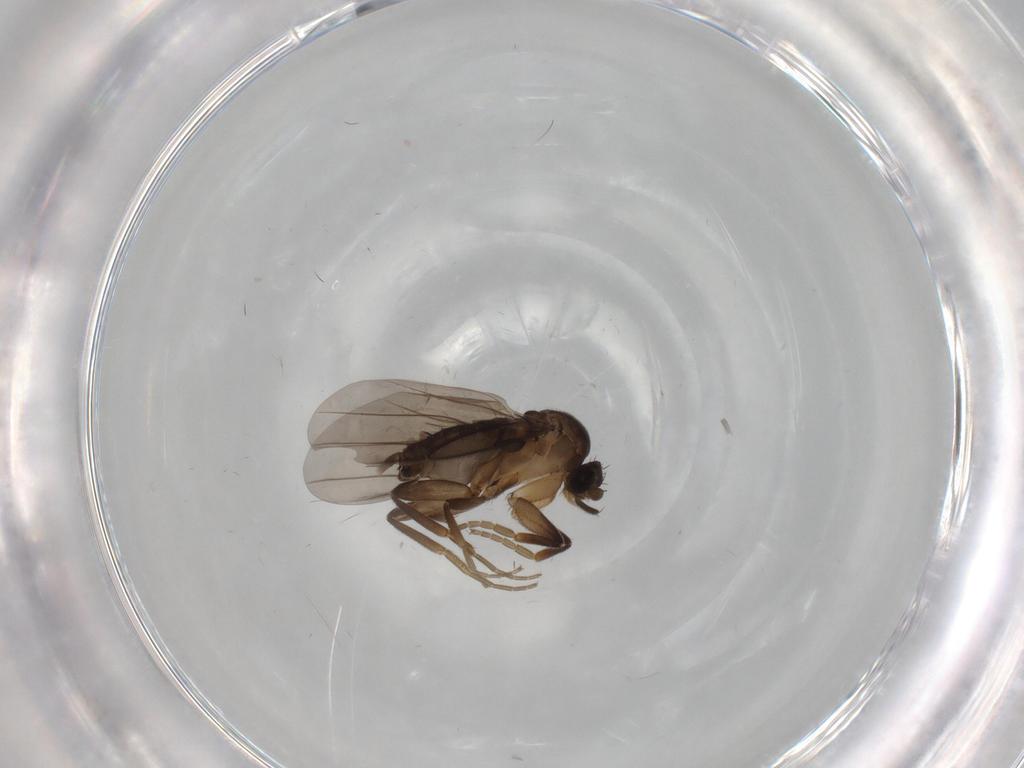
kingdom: Animalia
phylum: Arthropoda
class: Insecta
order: Diptera
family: Phoridae
